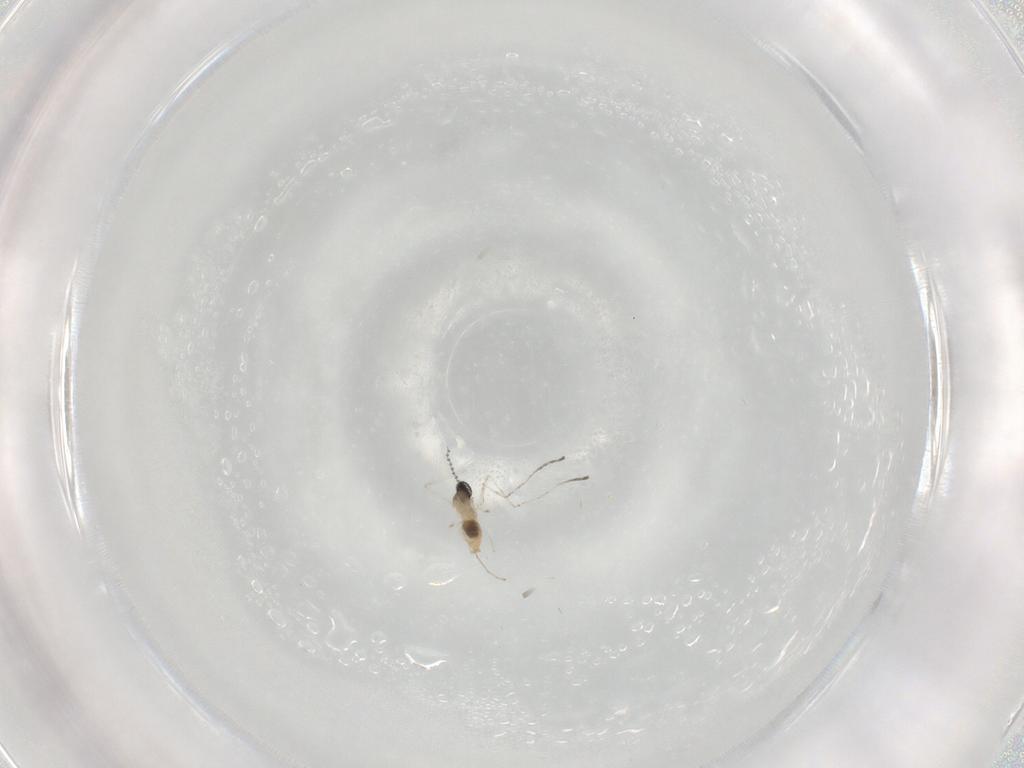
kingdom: Animalia
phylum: Arthropoda
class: Insecta
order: Diptera
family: Cecidomyiidae
